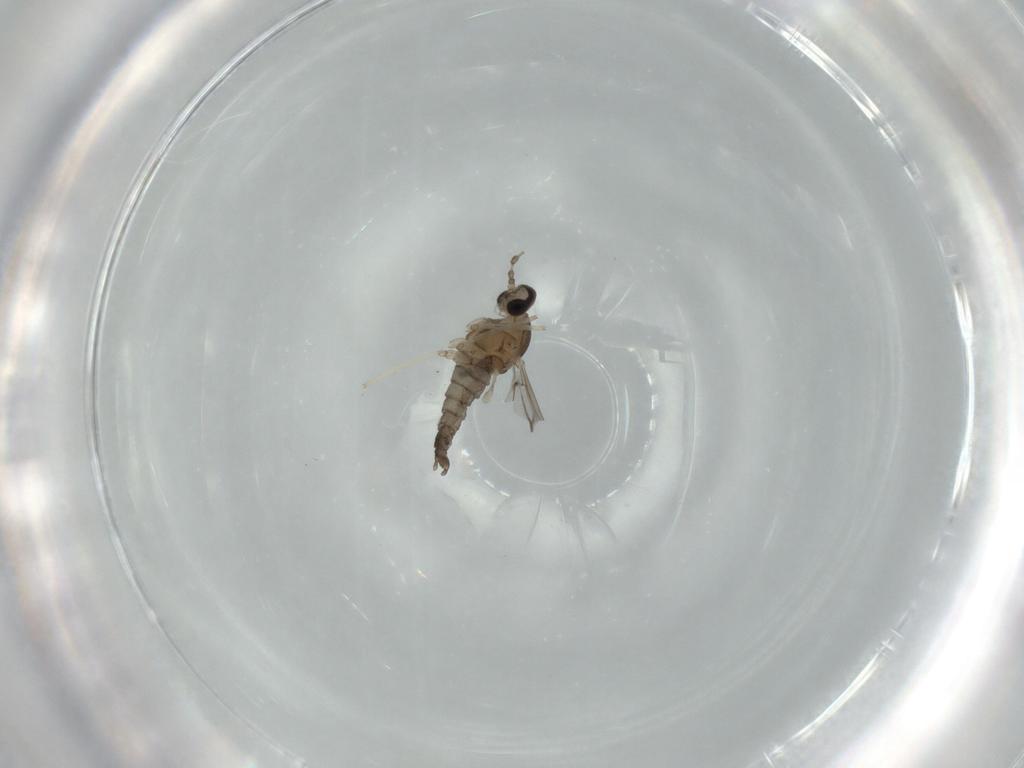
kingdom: Animalia
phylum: Arthropoda
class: Insecta
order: Diptera
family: Cecidomyiidae
